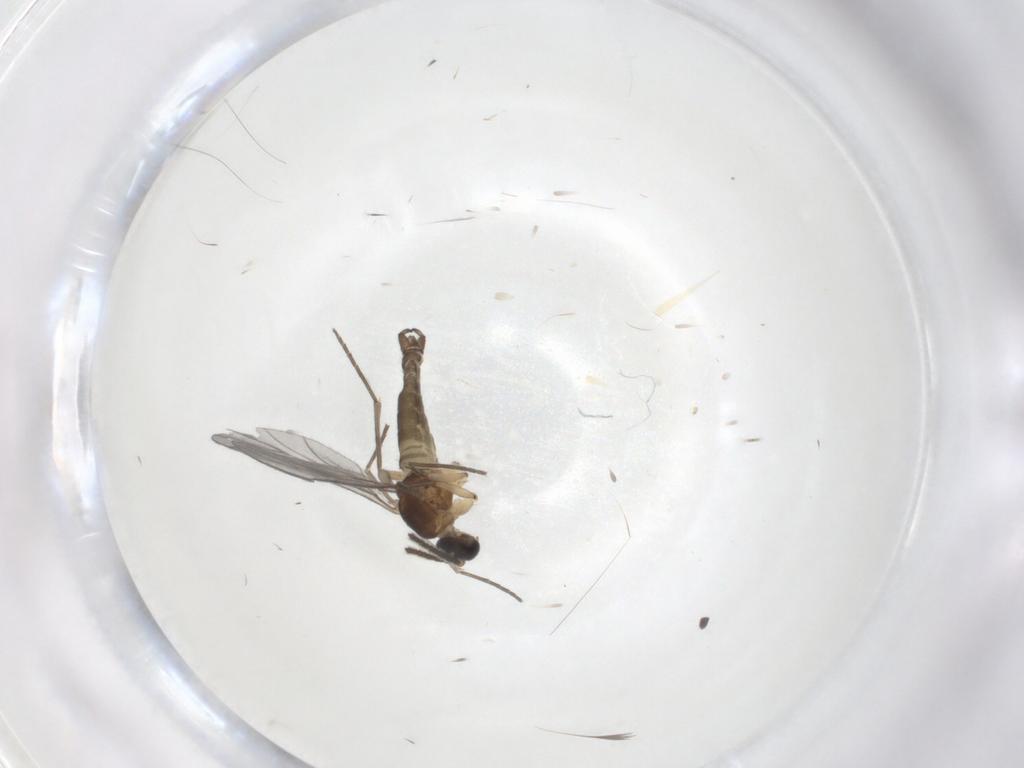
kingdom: Animalia
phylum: Arthropoda
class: Insecta
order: Diptera
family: Sciaridae
